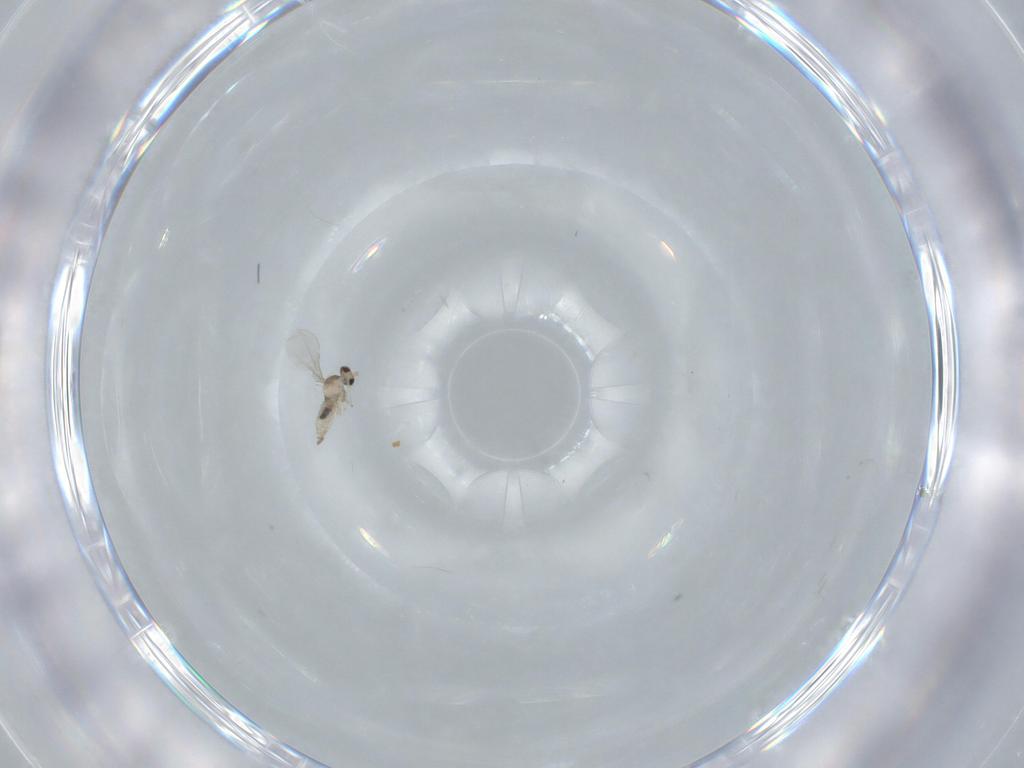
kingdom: Animalia
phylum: Arthropoda
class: Insecta
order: Diptera
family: Cecidomyiidae
